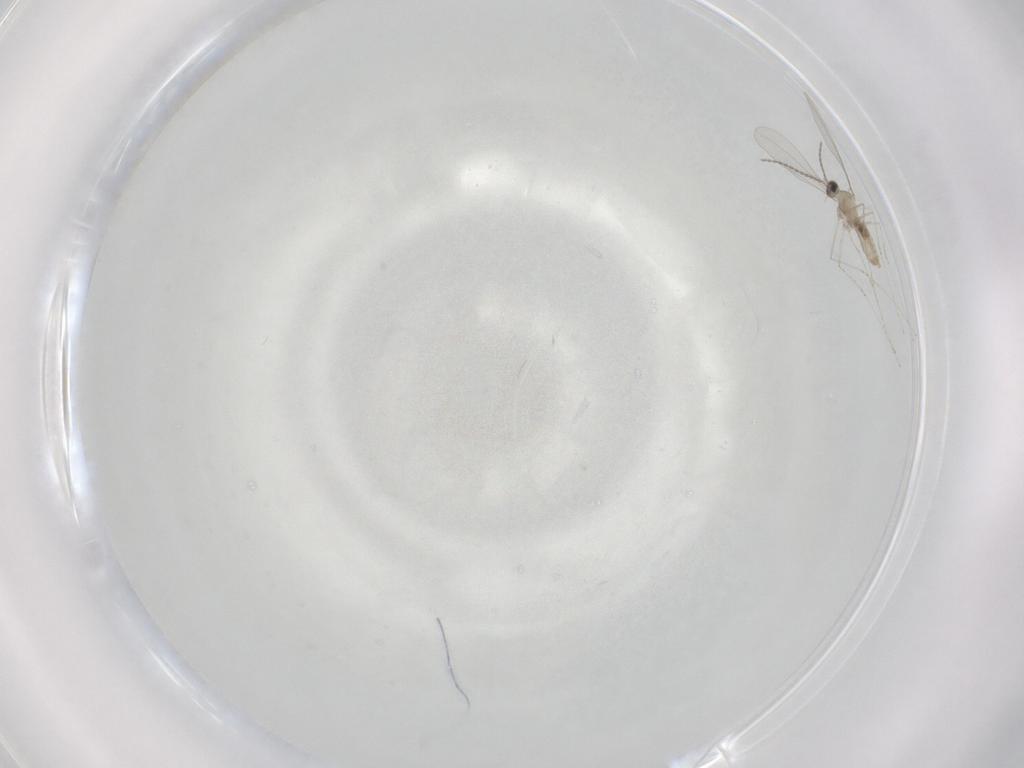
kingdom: Animalia
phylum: Arthropoda
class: Insecta
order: Diptera
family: Cecidomyiidae
